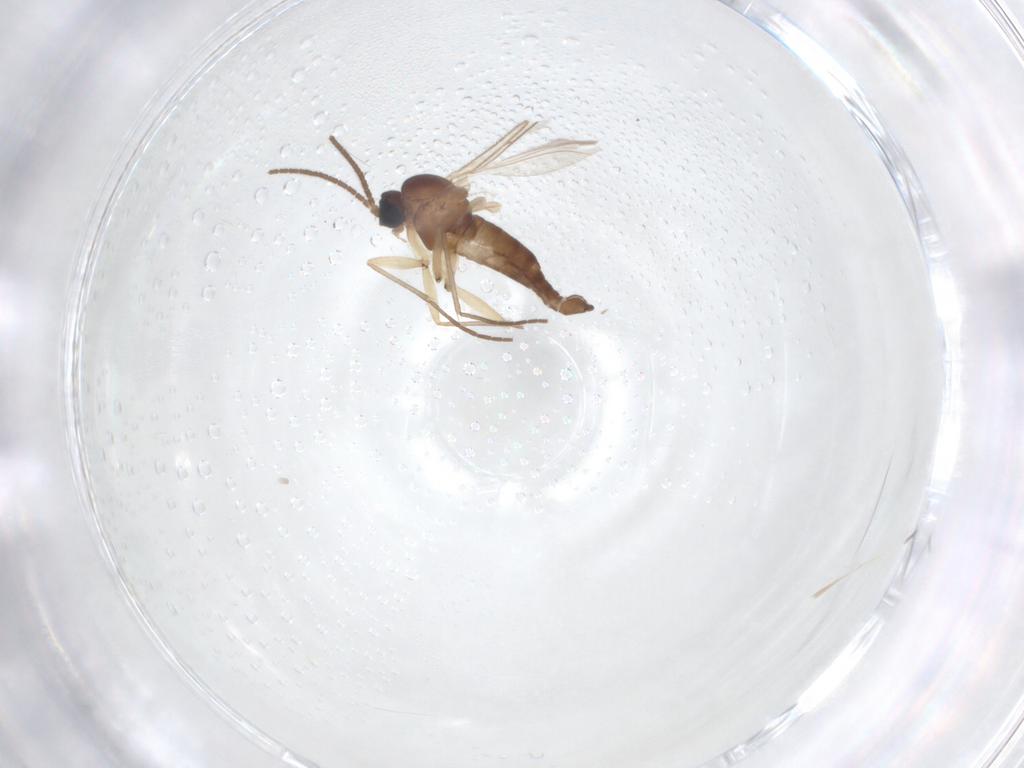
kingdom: Animalia
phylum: Arthropoda
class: Insecta
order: Diptera
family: Sciaridae
